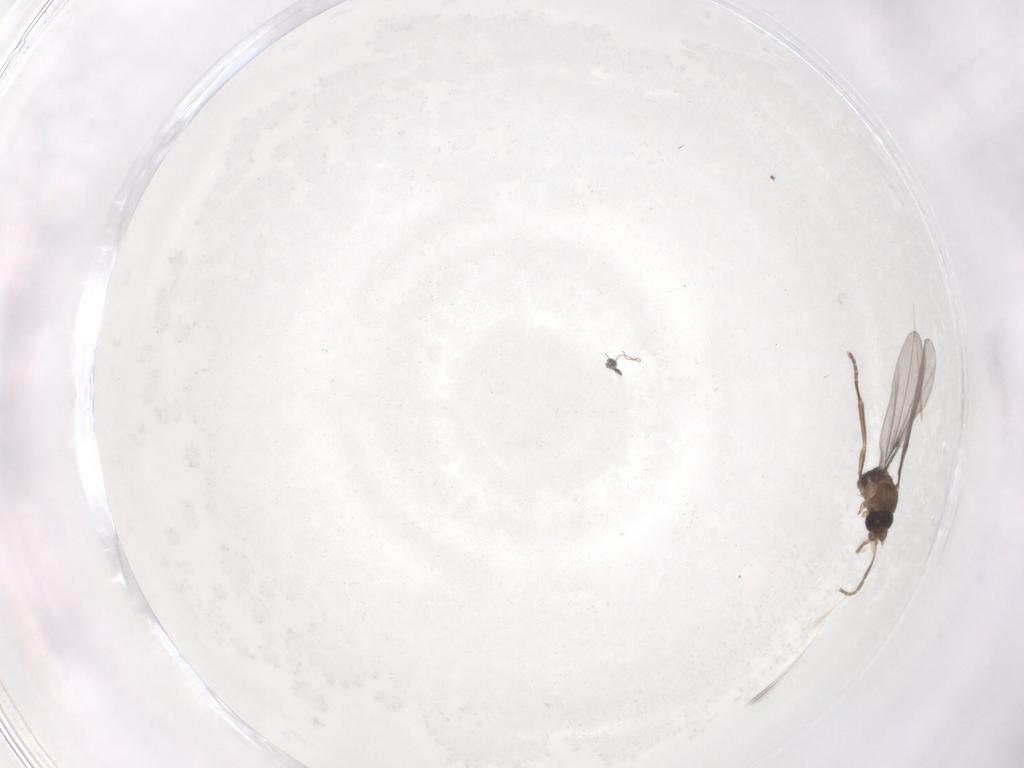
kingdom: Animalia
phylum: Arthropoda
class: Insecta
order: Diptera
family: Phoridae
